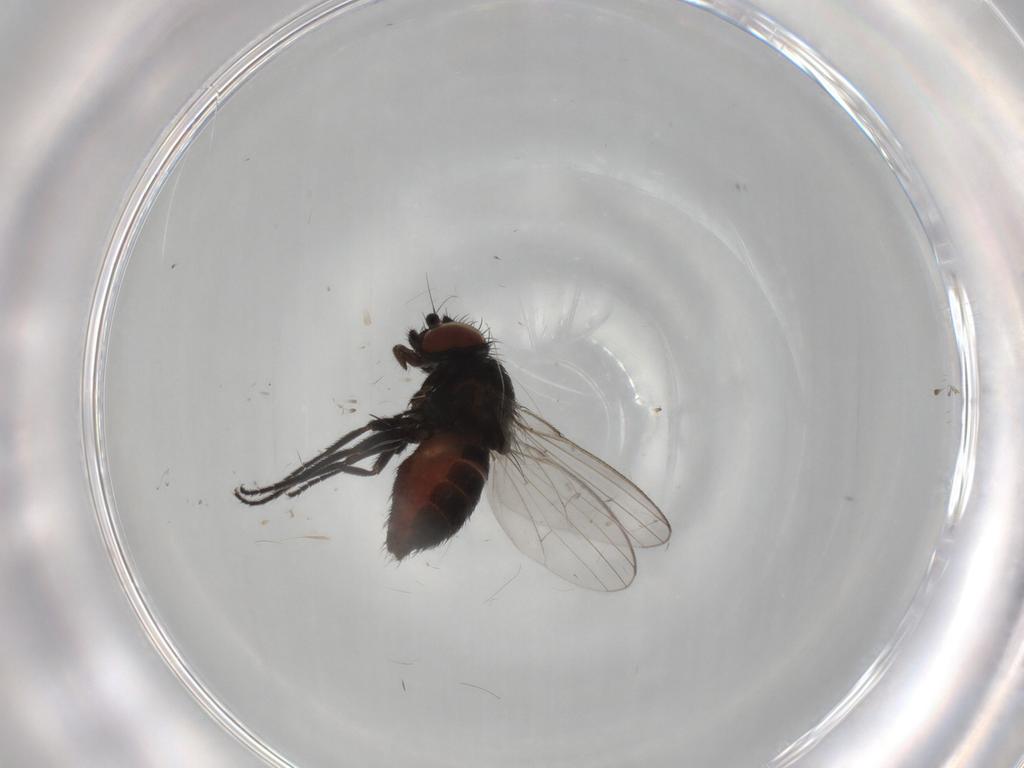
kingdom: Animalia
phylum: Arthropoda
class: Insecta
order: Diptera
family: Milichiidae
